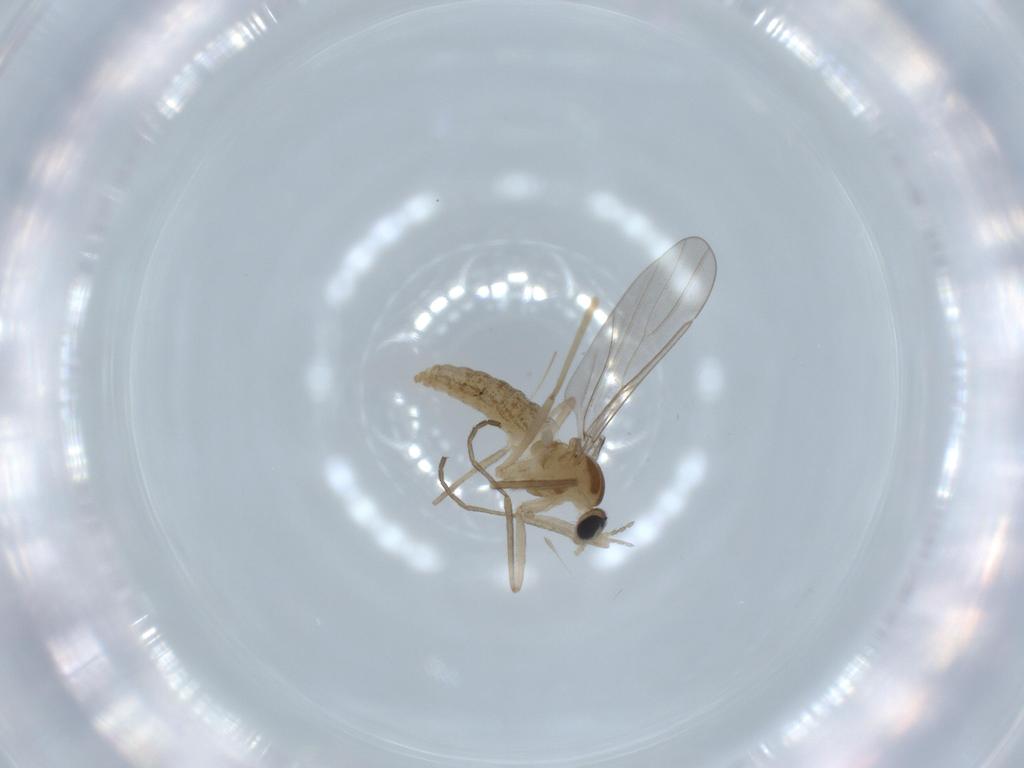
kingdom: Animalia
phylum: Arthropoda
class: Insecta
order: Diptera
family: Cecidomyiidae
